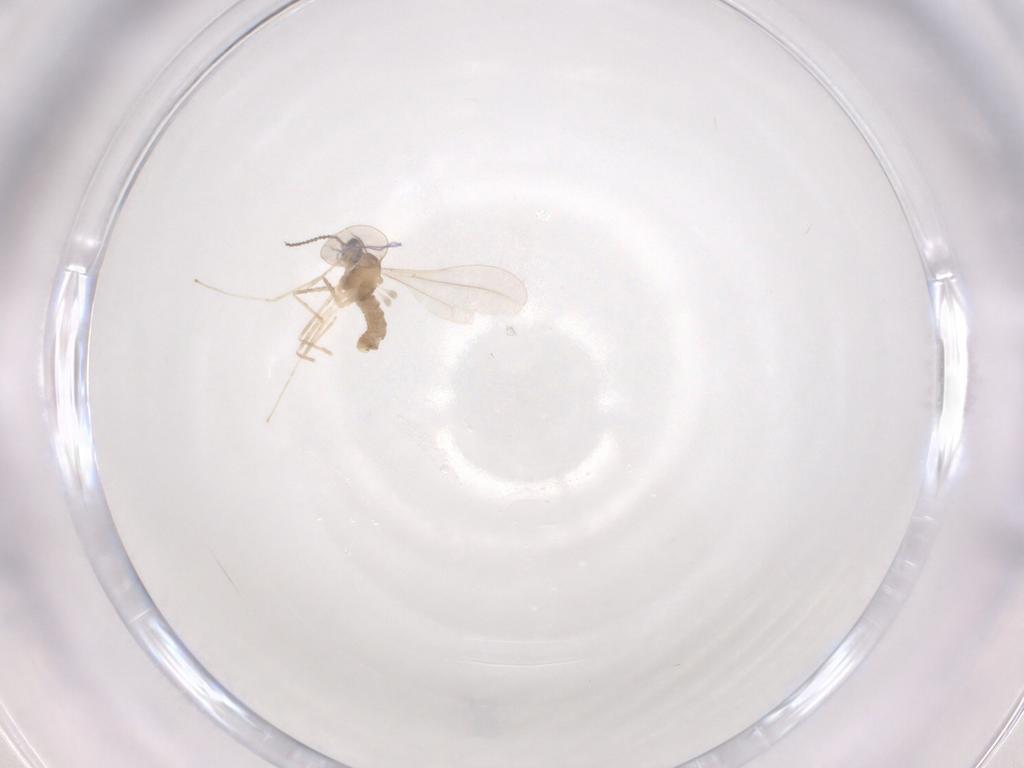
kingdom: Animalia
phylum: Arthropoda
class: Insecta
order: Diptera
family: Cecidomyiidae
